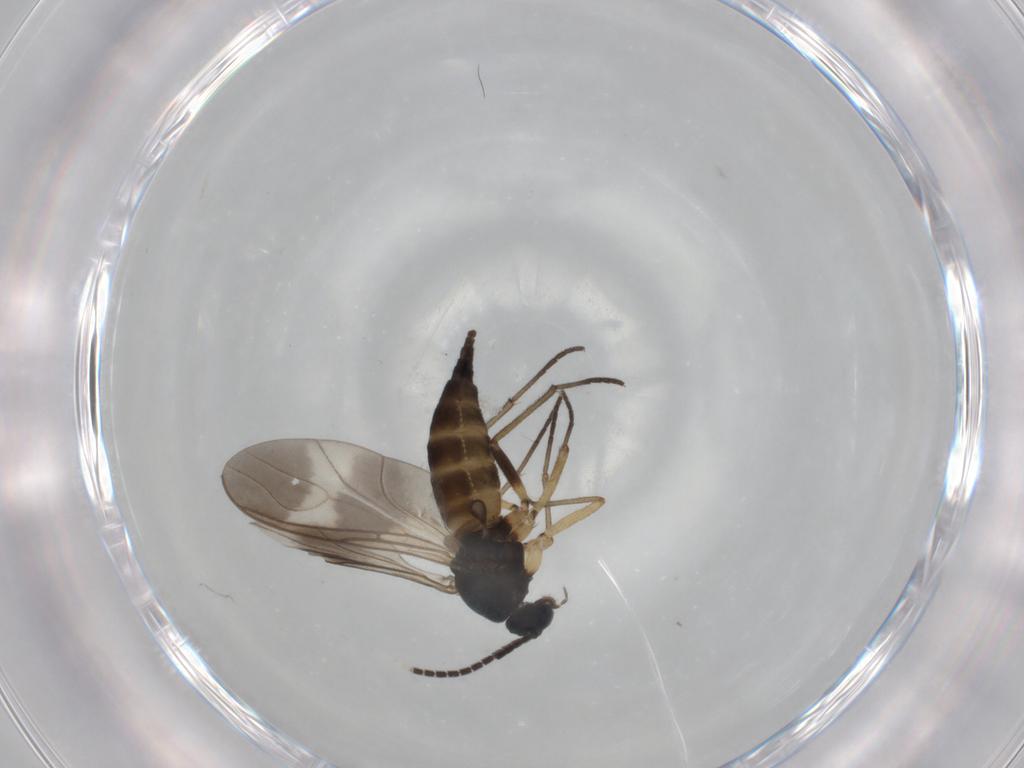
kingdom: Animalia
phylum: Arthropoda
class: Insecta
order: Diptera
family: Sciaridae
